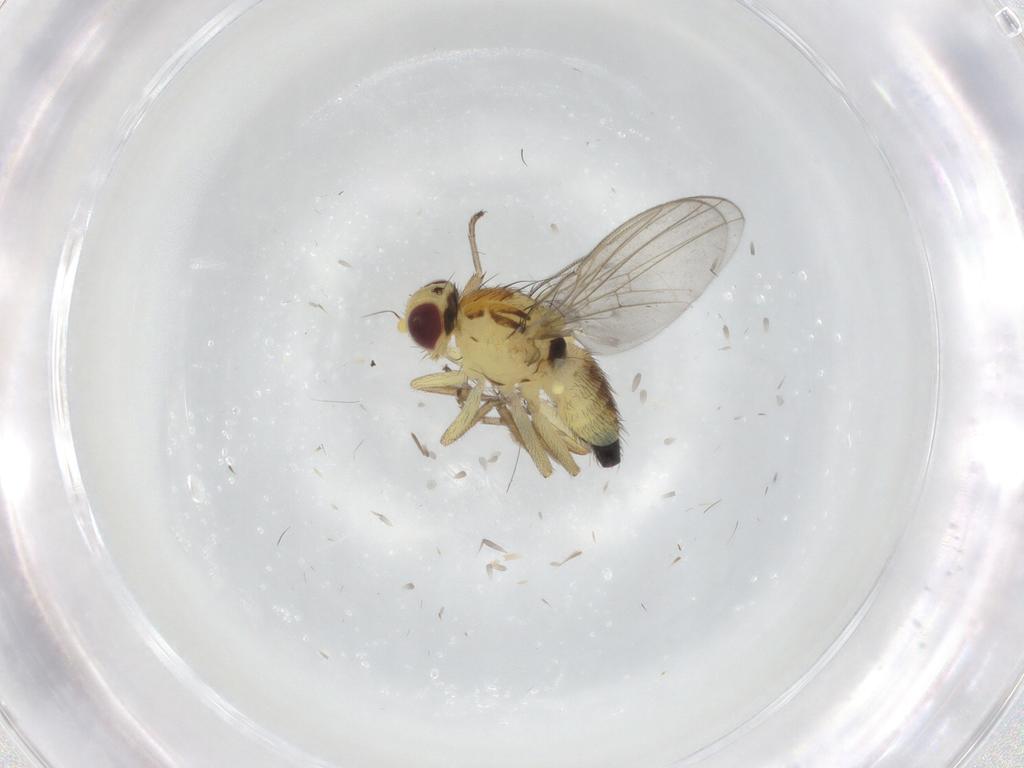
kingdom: Animalia
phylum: Arthropoda
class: Insecta
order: Diptera
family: Agromyzidae
